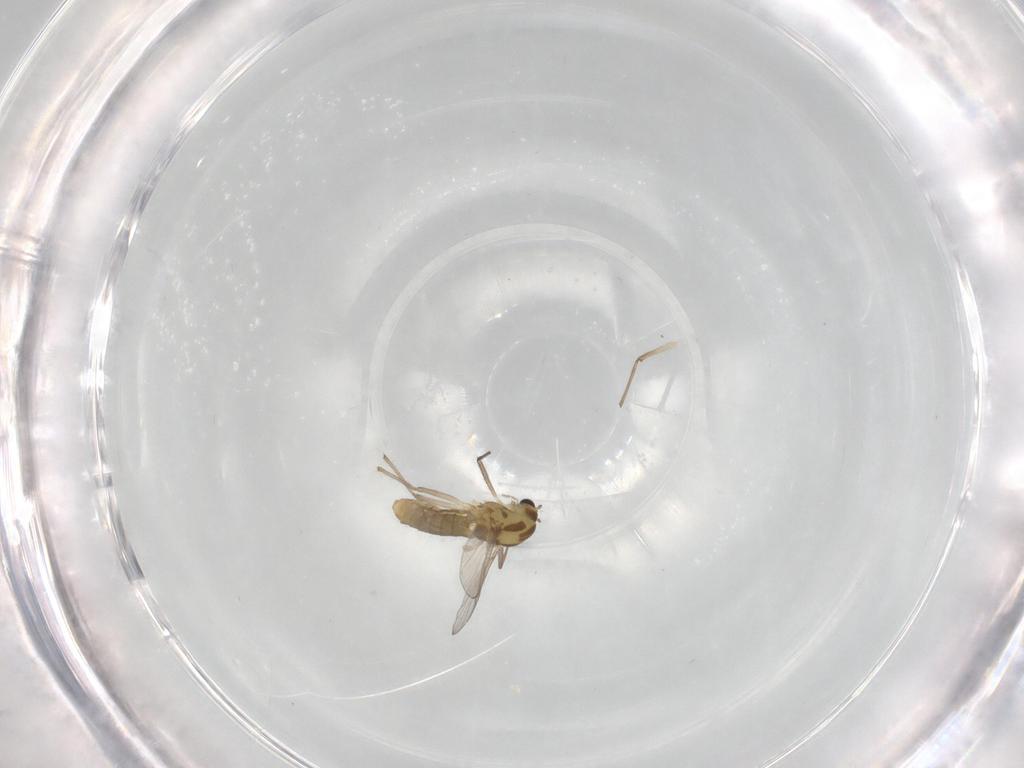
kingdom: Animalia
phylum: Arthropoda
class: Insecta
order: Diptera
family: Chironomidae
